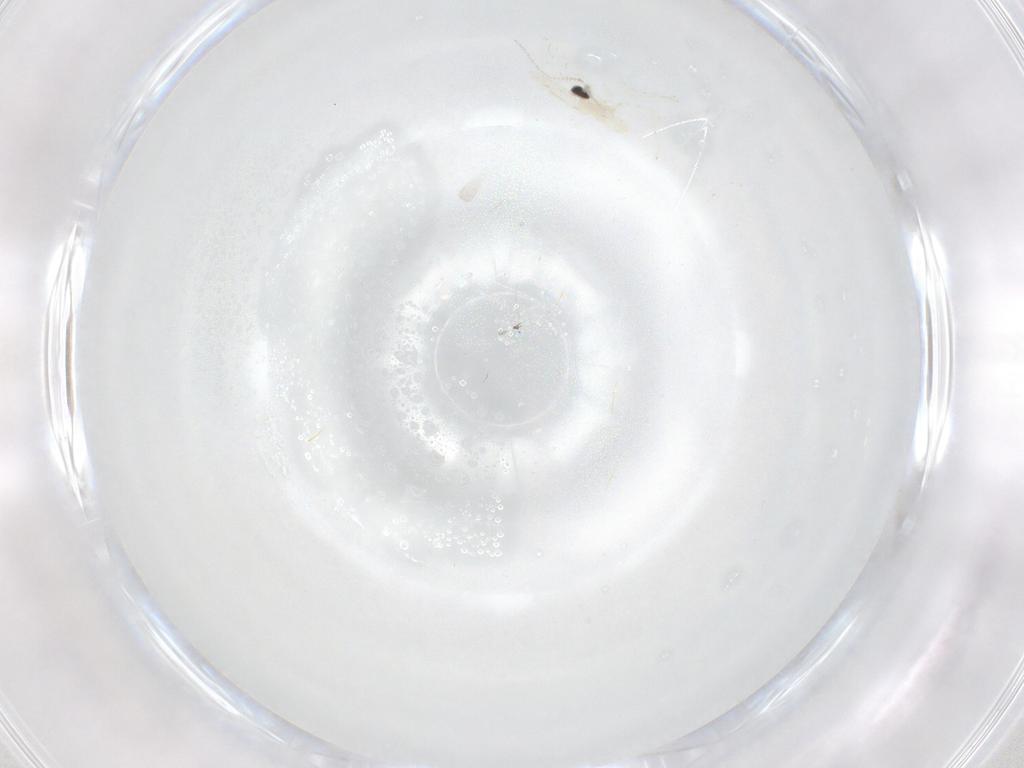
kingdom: Animalia
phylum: Arthropoda
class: Insecta
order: Diptera
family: Cecidomyiidae
